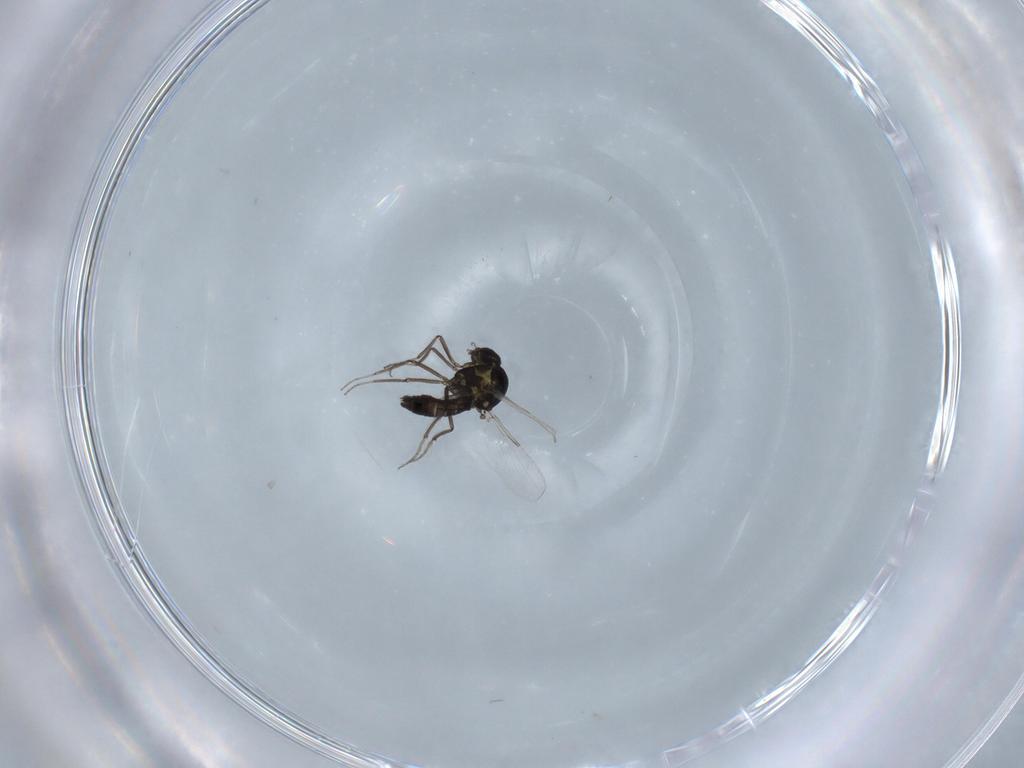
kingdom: Animalia
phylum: Arthropoda
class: Insecta
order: Diptera
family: Ceratopogonidae
